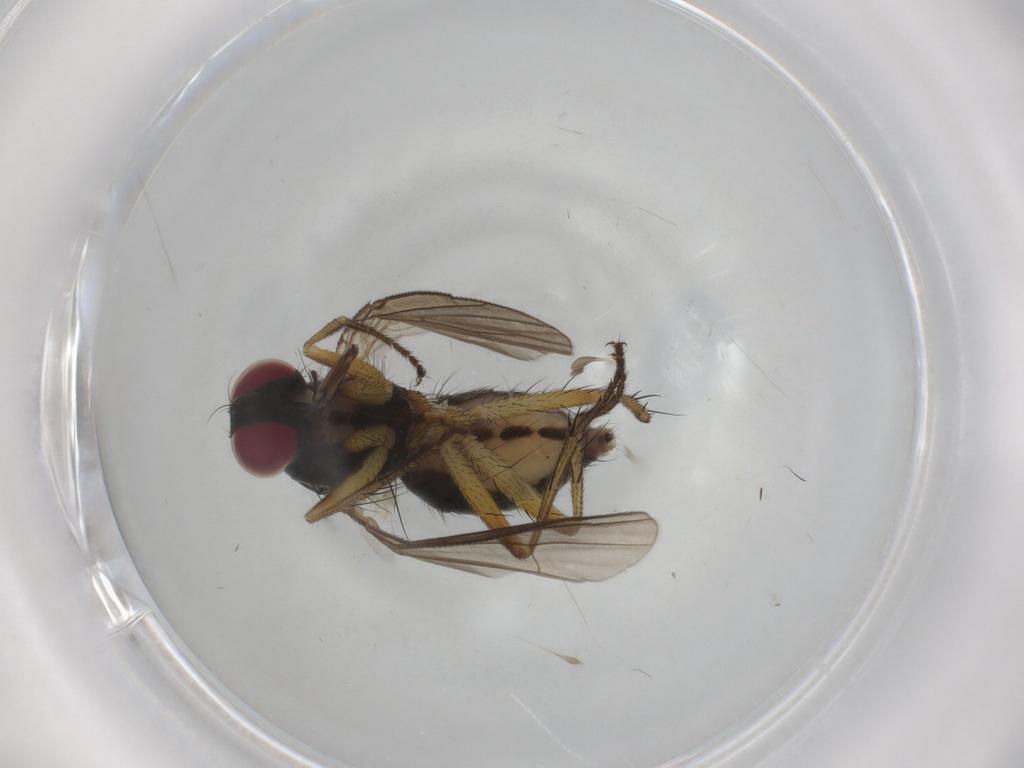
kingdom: Animalia
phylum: Arthropoda
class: Insecta
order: Diptera
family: Muscidae
